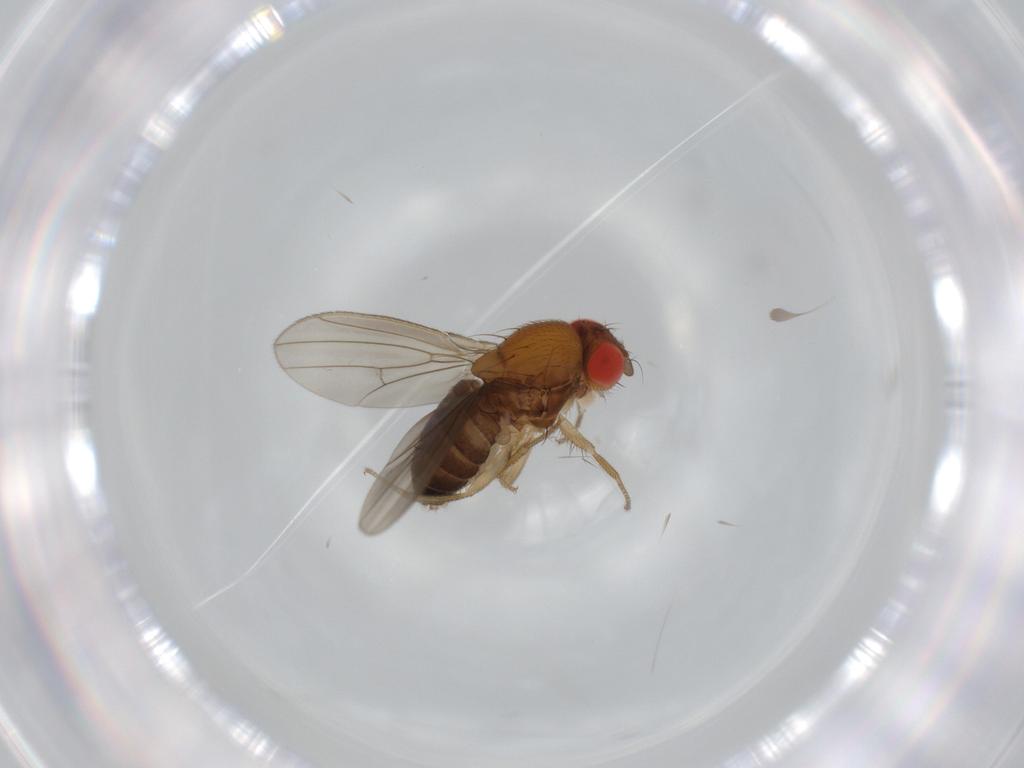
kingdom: Animalia
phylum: Arthropoda
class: Insecta
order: Diptera
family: Drosophilidae
